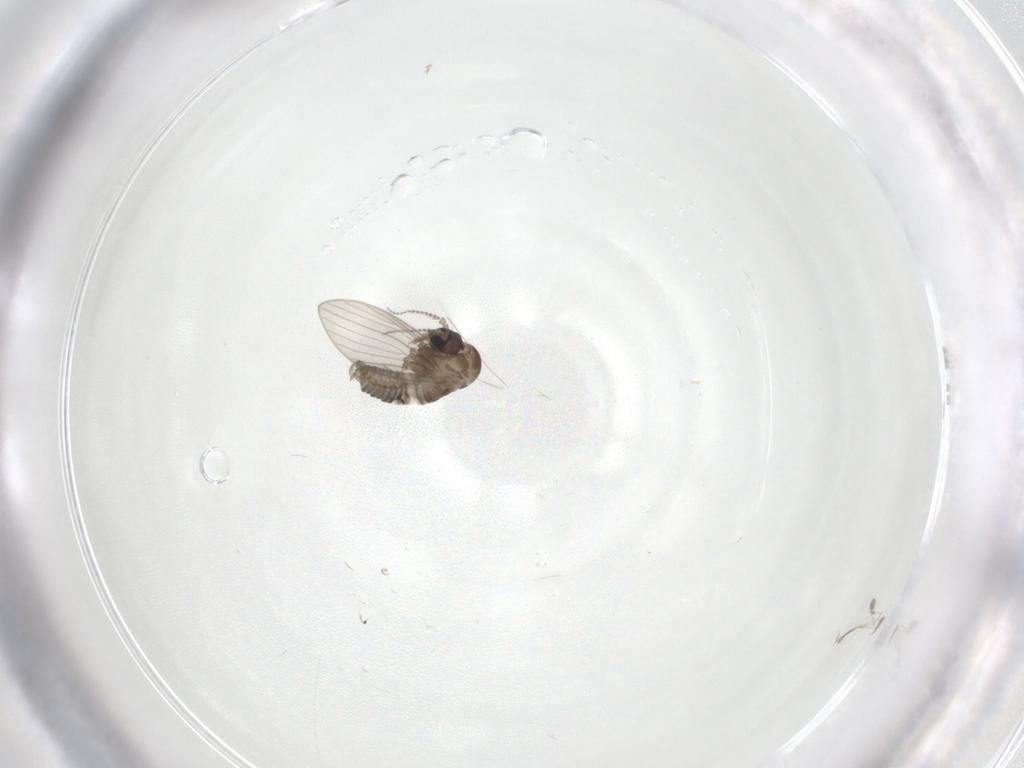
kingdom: Animalia
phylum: Arthropoda
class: Insecta
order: Diptera
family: Psychodidae
